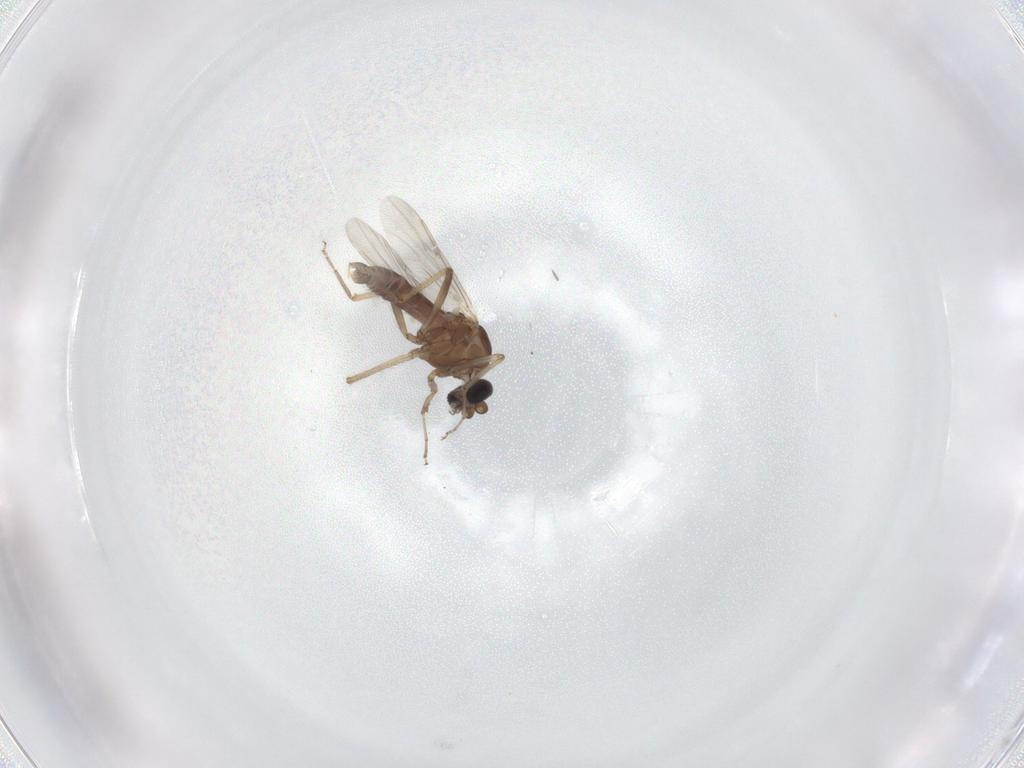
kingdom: Animalia
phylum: Arthropoda
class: Insecta
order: Diptera
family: Ceratopogonidae
